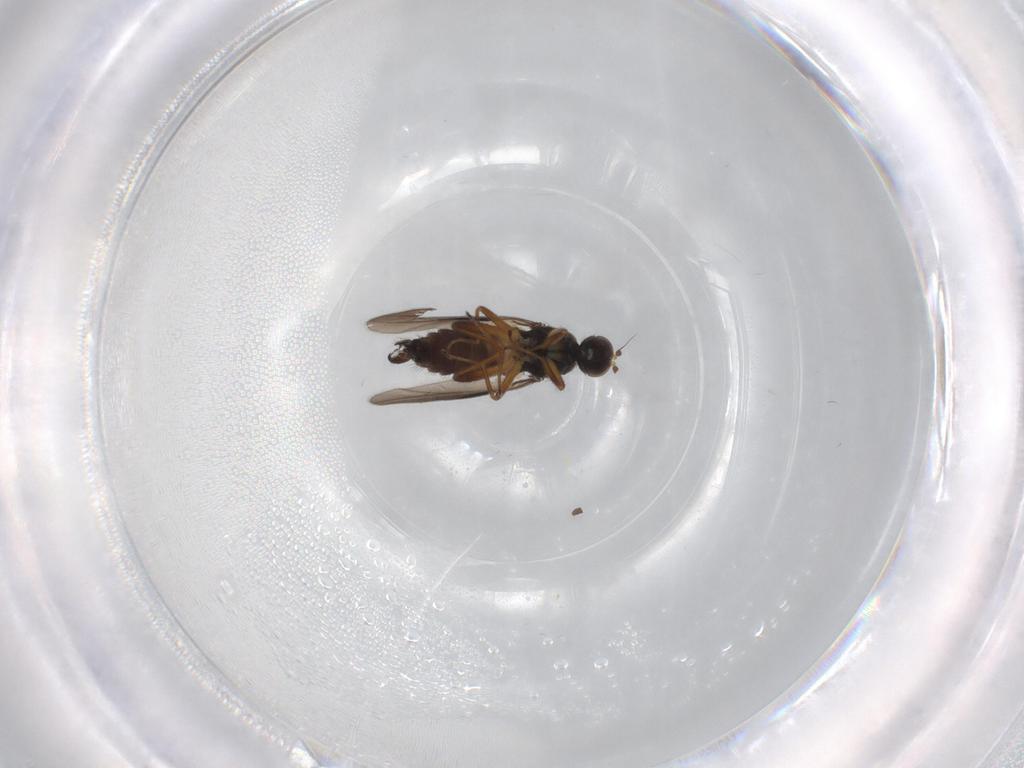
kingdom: Animalia
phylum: Arthropoda
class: Insecta
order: Diptera
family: Hybotidae
